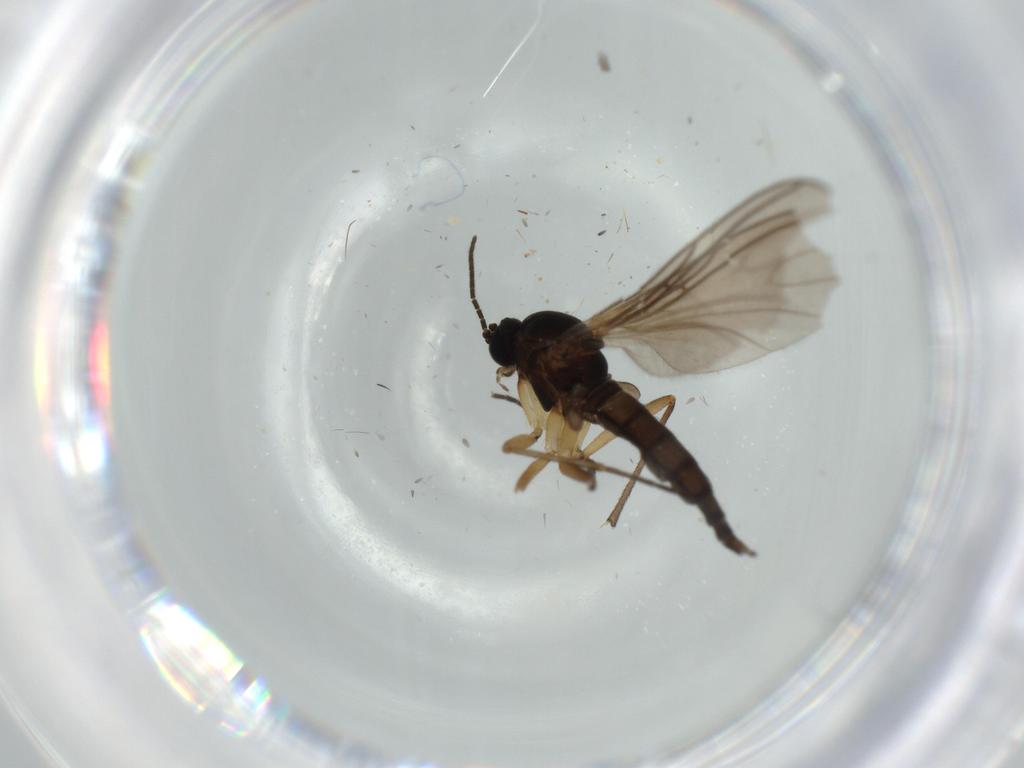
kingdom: Animalia
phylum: Arthropoda
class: Insecta
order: Diptera
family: Sciaridae
